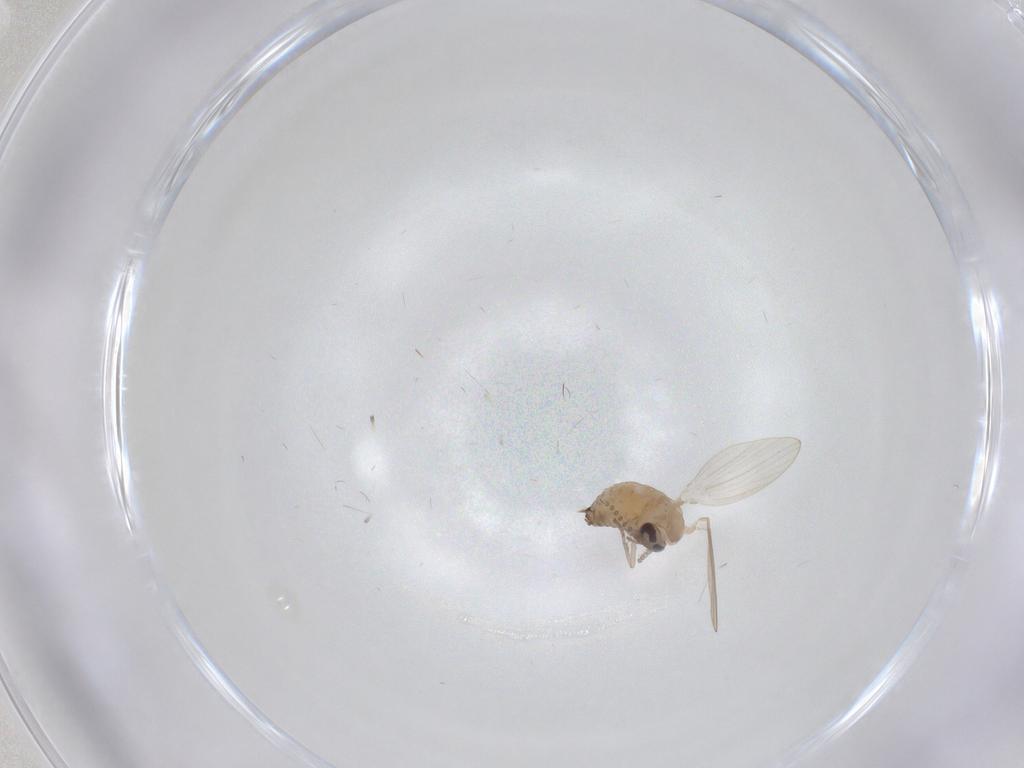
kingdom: Animalia
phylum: Arthropoda
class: Insecta
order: Diptera
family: Psychodidae
